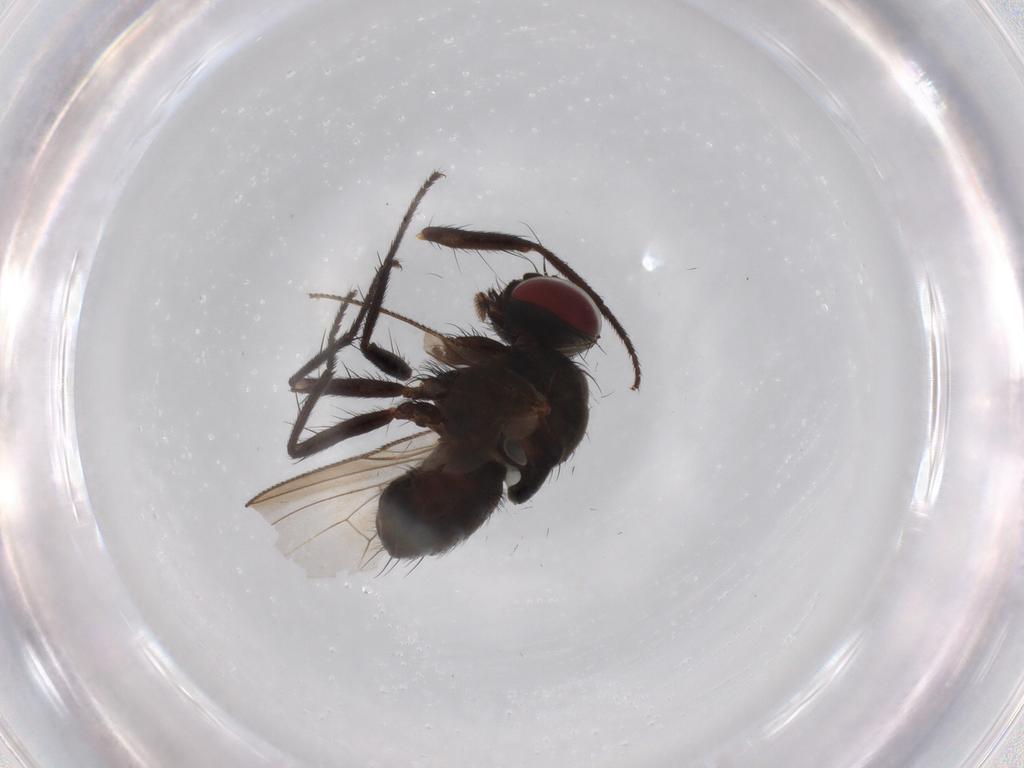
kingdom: Animalia
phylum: Arthropoda
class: Insecta
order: Diptera
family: Muscidae
